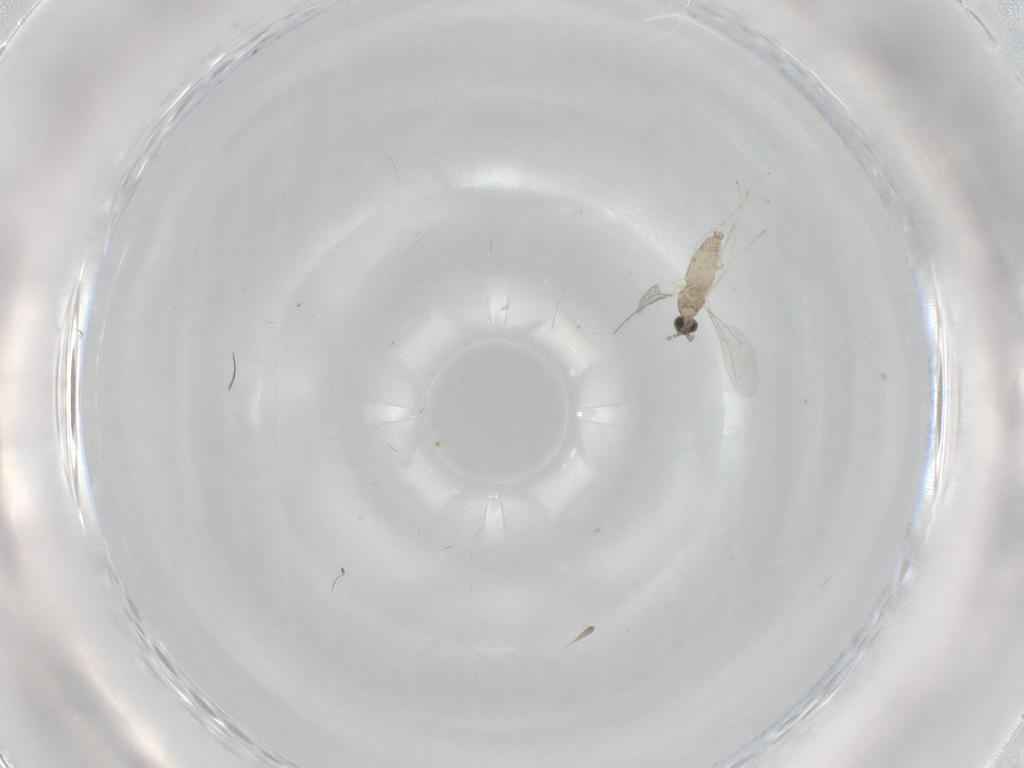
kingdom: Animalia
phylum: Arthropoda
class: Insecta
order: Diptera
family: Cecidomyiidae
